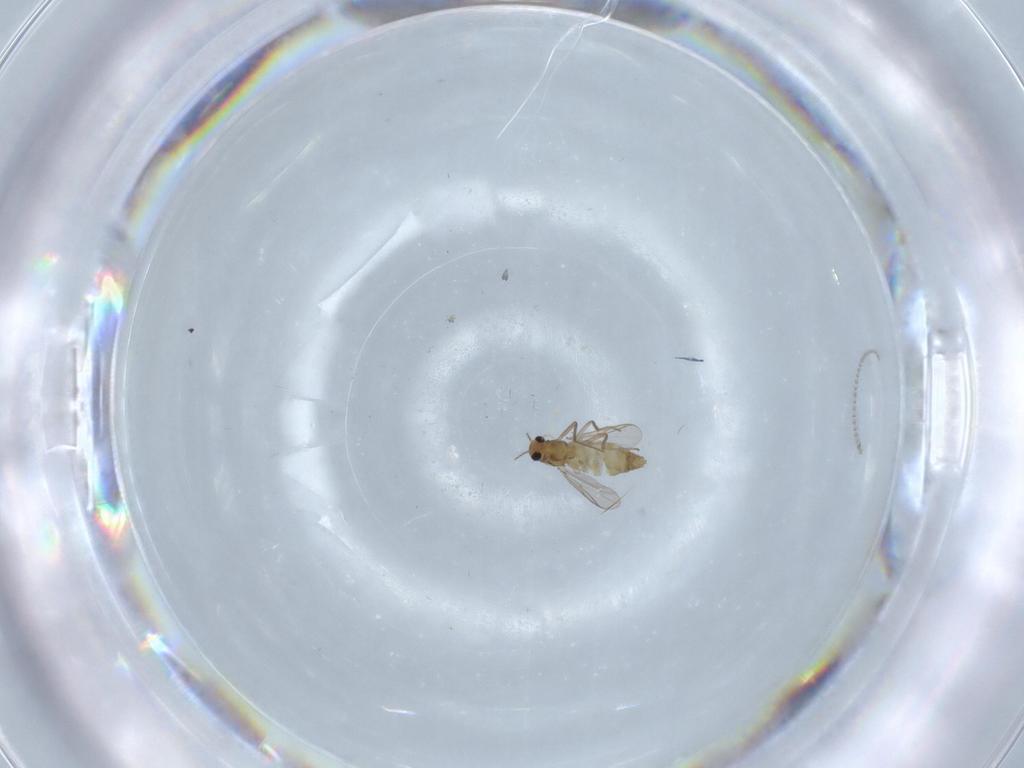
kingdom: Animalia
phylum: Arthropoda
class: Insecta
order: Diptera
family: Chironomidae
